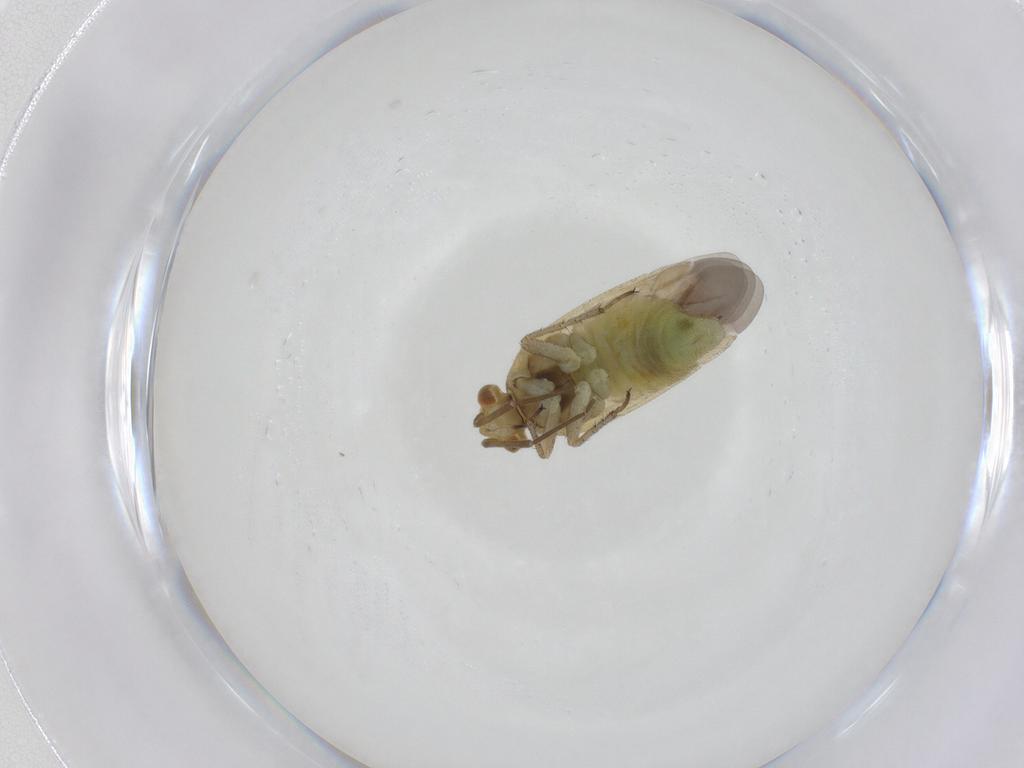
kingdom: Animalia
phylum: Arthropoda
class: Insecta
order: Hemiptera
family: Miridae
